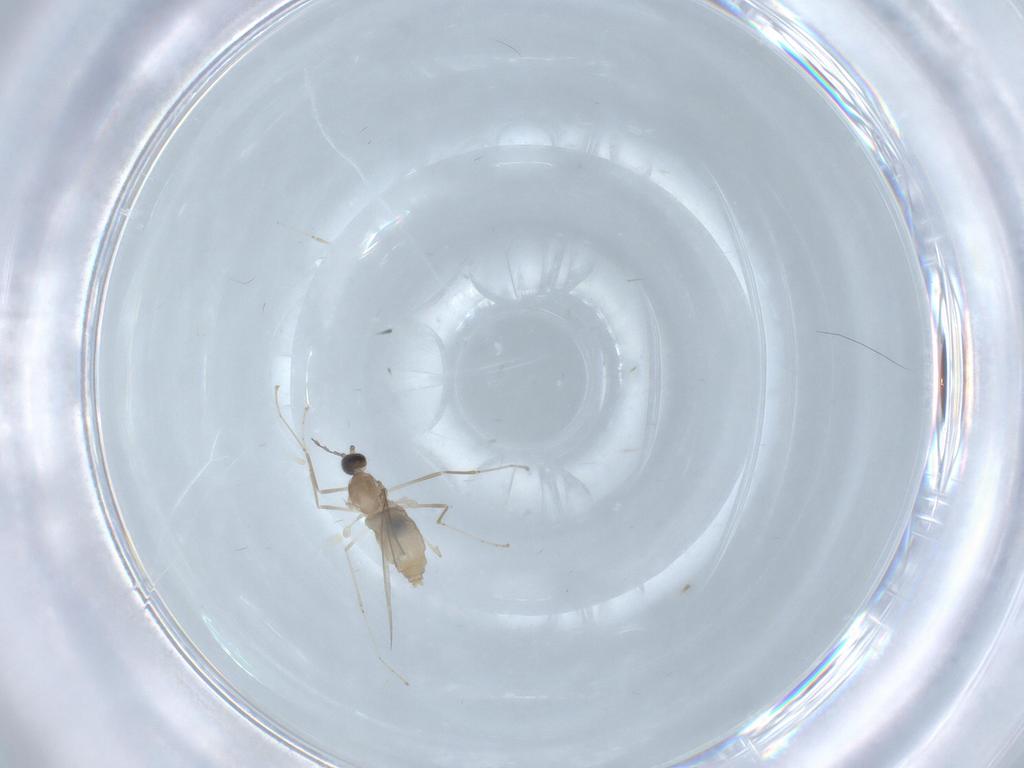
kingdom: Animalia
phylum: Arthropoda
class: Insecta
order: Diptera
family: Cecidomyiidae
